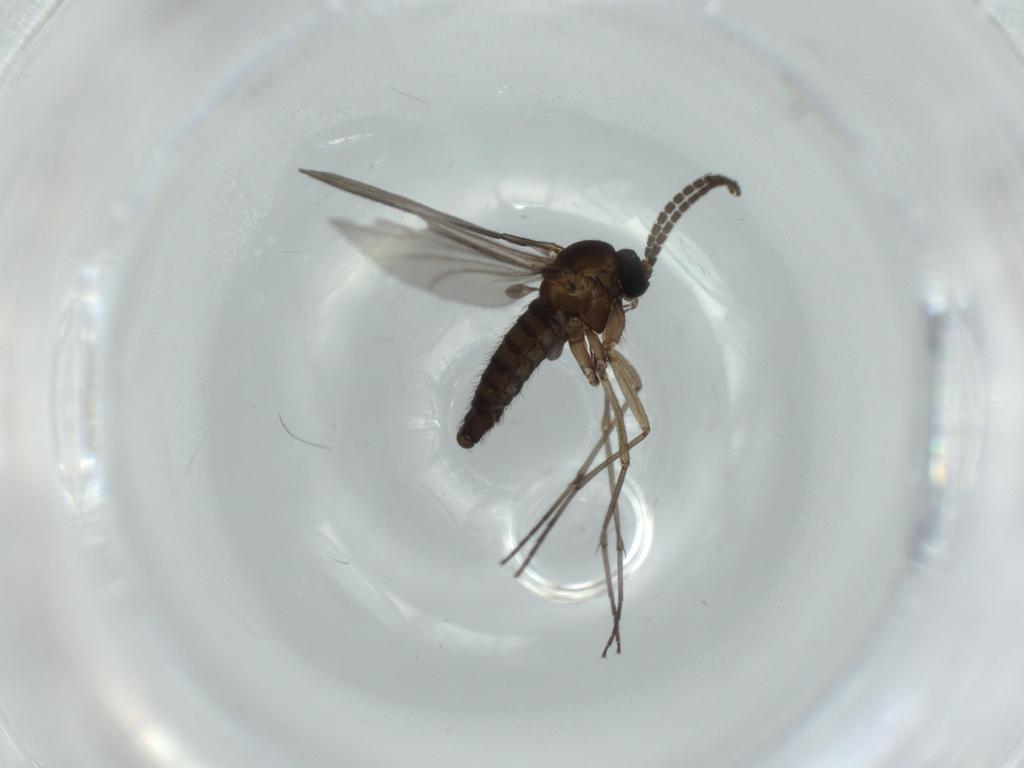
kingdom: Animalia
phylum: Arthropoda
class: Insecta
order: Diptera
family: Sciaridae
